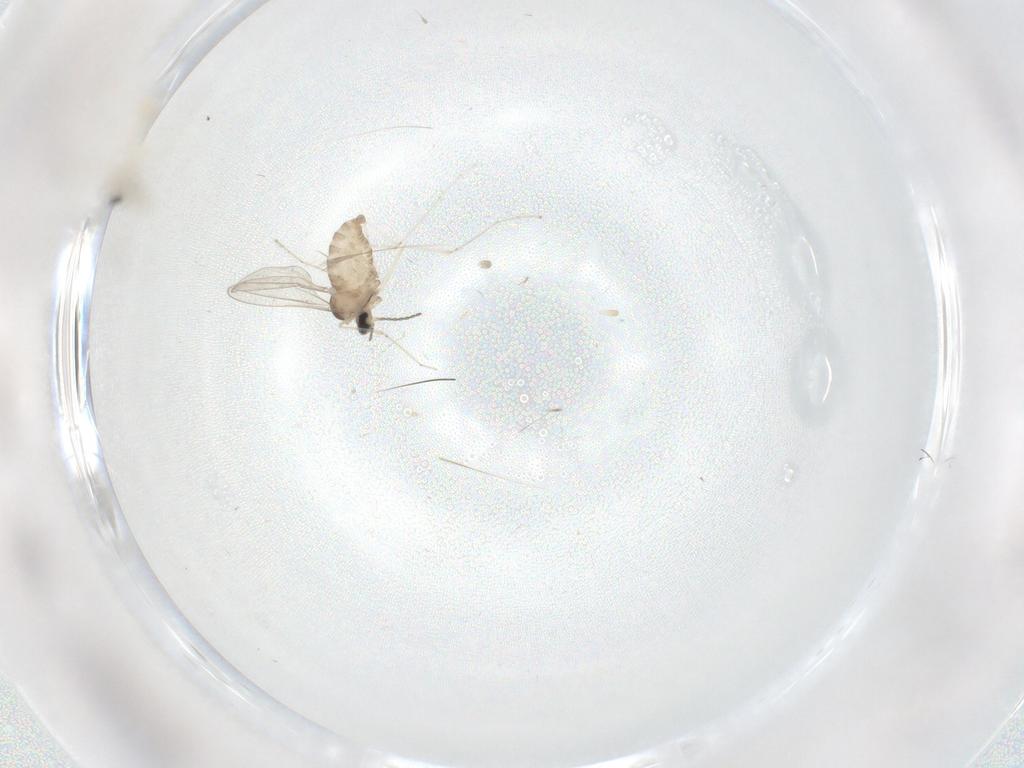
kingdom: Animalia
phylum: Arthropoda
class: Insecta
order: Diptera
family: Cecidomyiidae
